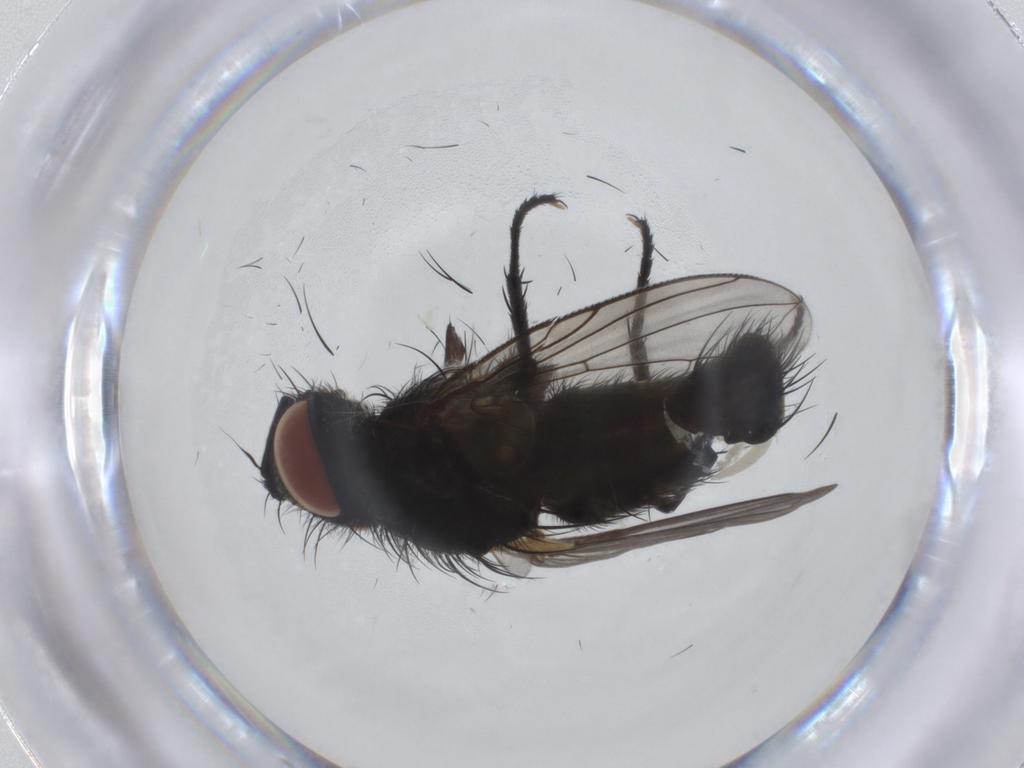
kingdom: Animalia
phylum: Arthropoda
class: Insecta
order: Diptera
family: Tachinidae
